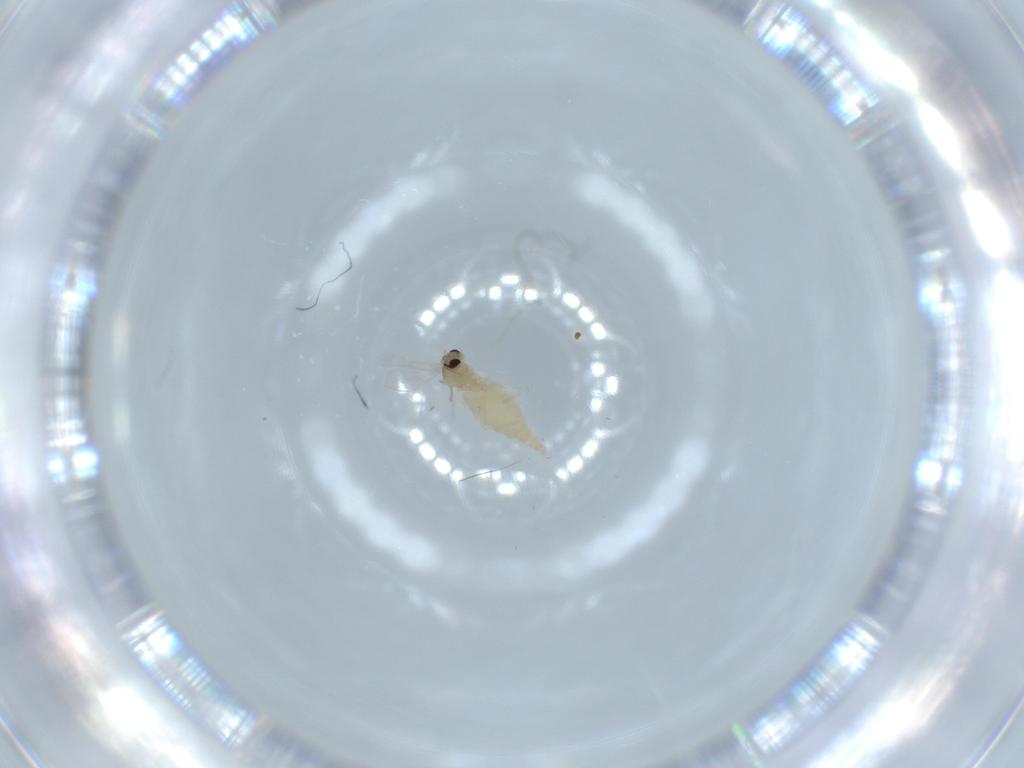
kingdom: Animalia
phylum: Arthropoda
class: Insecta
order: Diptera
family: Cecidomyiidae
